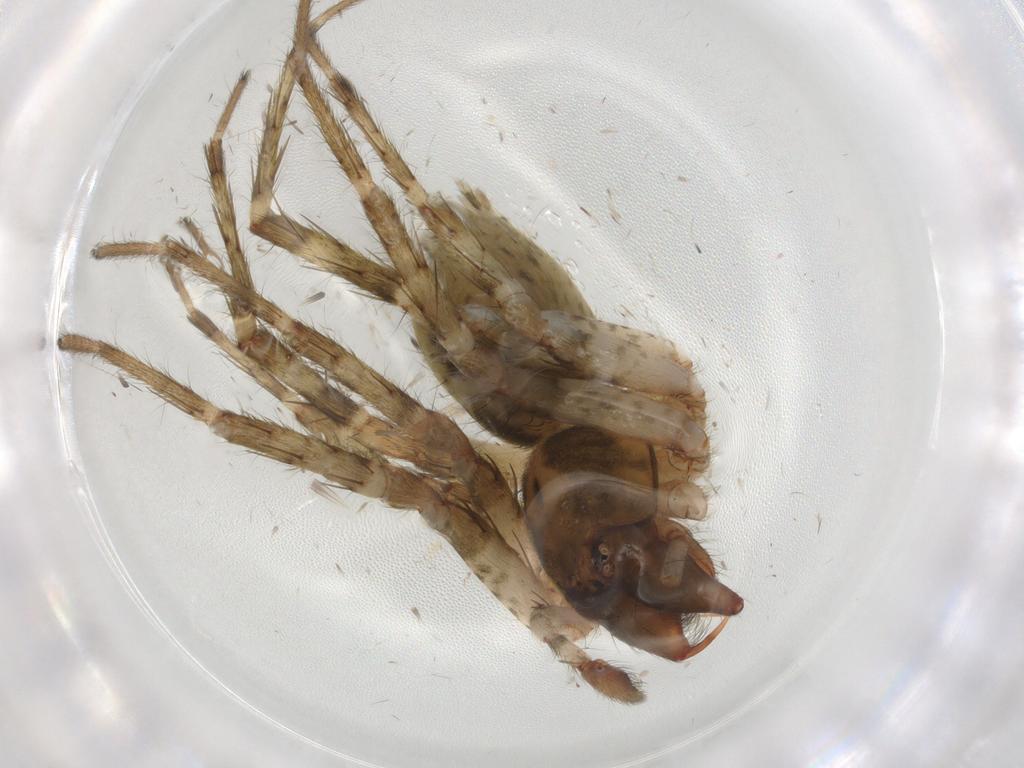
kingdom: Animalia
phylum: Arthropoda
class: Arachnida
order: Araneae
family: Anyphaenidae
